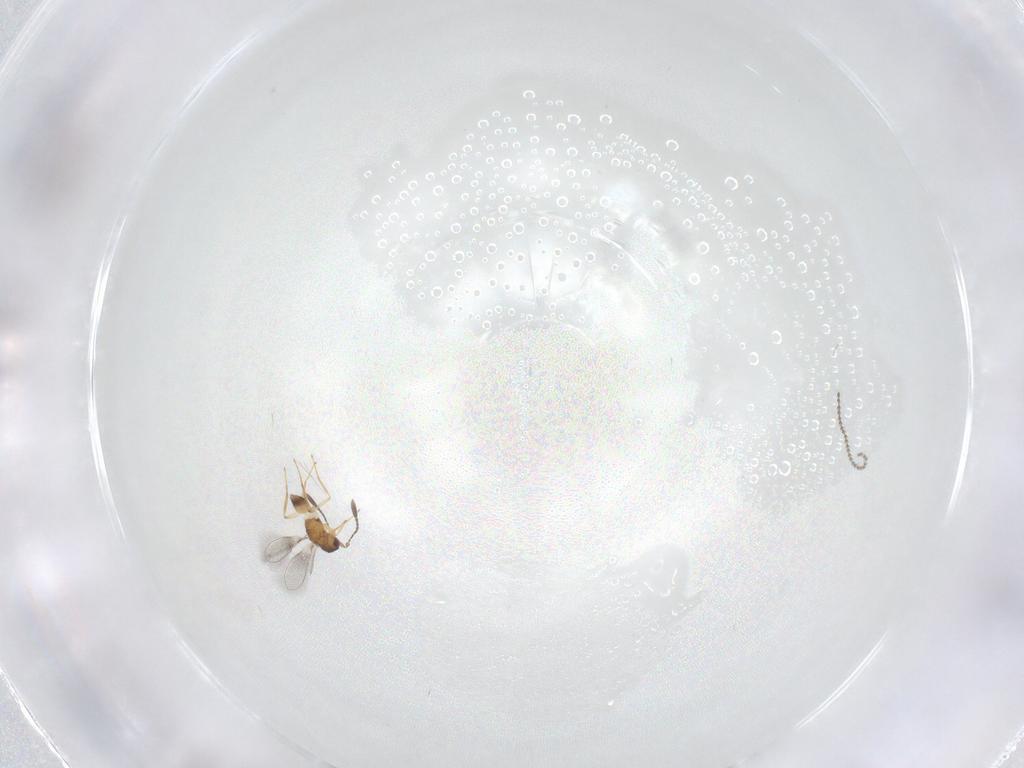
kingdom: Animalia
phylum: Arthropoda
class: Insecta
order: Diptera
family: Cecidomyiidae
